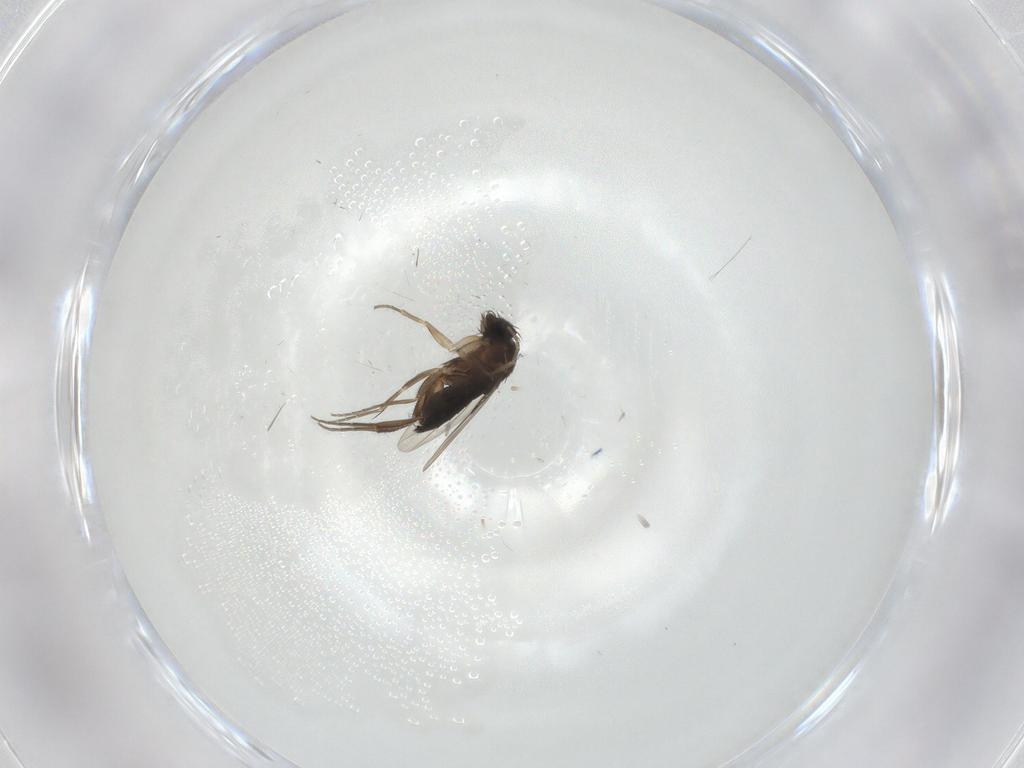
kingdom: Animalia
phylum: Arthropoda
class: Insecta
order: Diptera
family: Phoridae
